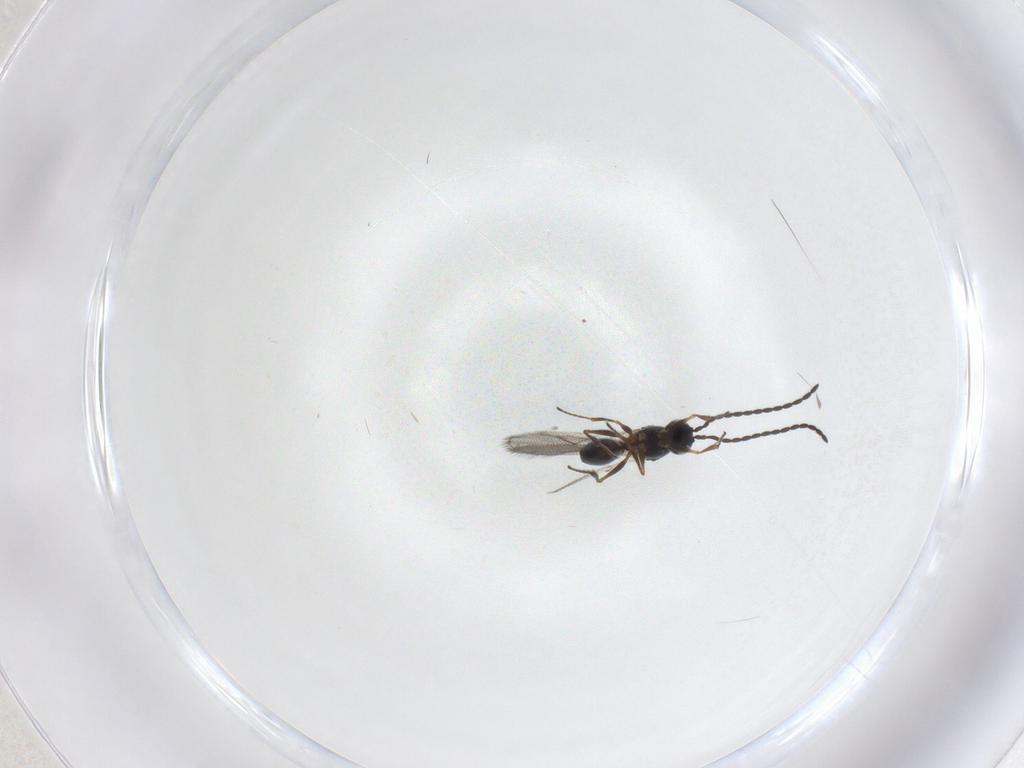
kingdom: Animalia
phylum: Arthropoda
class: Insecta
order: Hymenoptera
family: Figitidae
